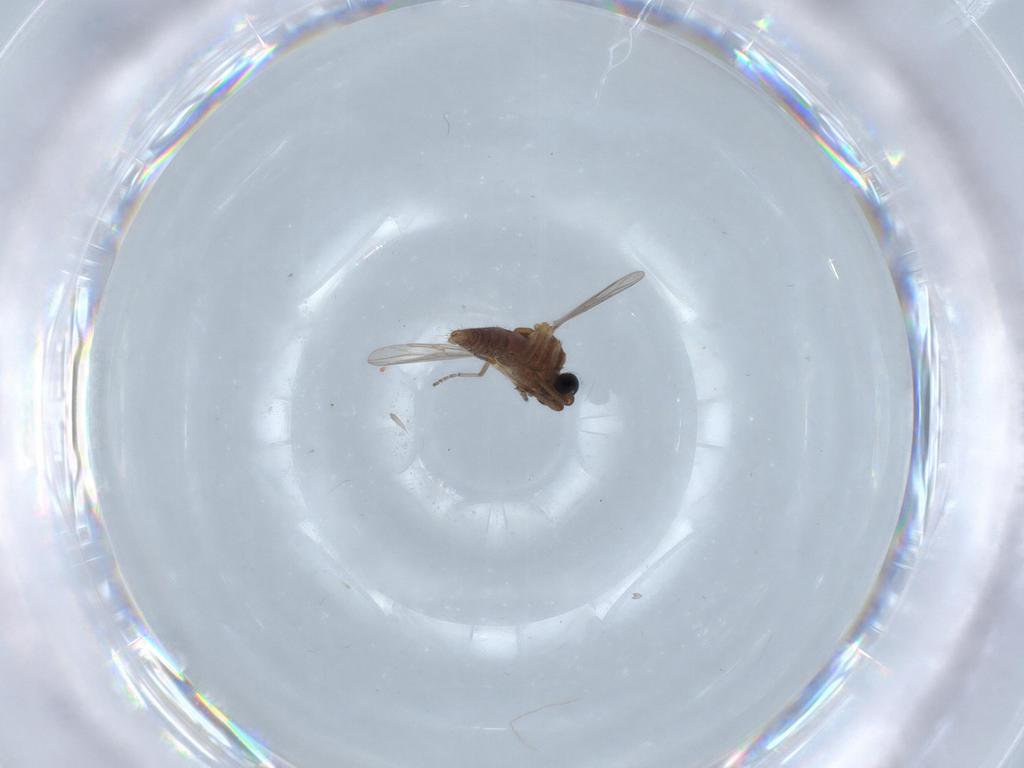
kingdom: Animalia
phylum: Arthropoda
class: Insecta
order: Diptera
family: Ceratopogonidae
